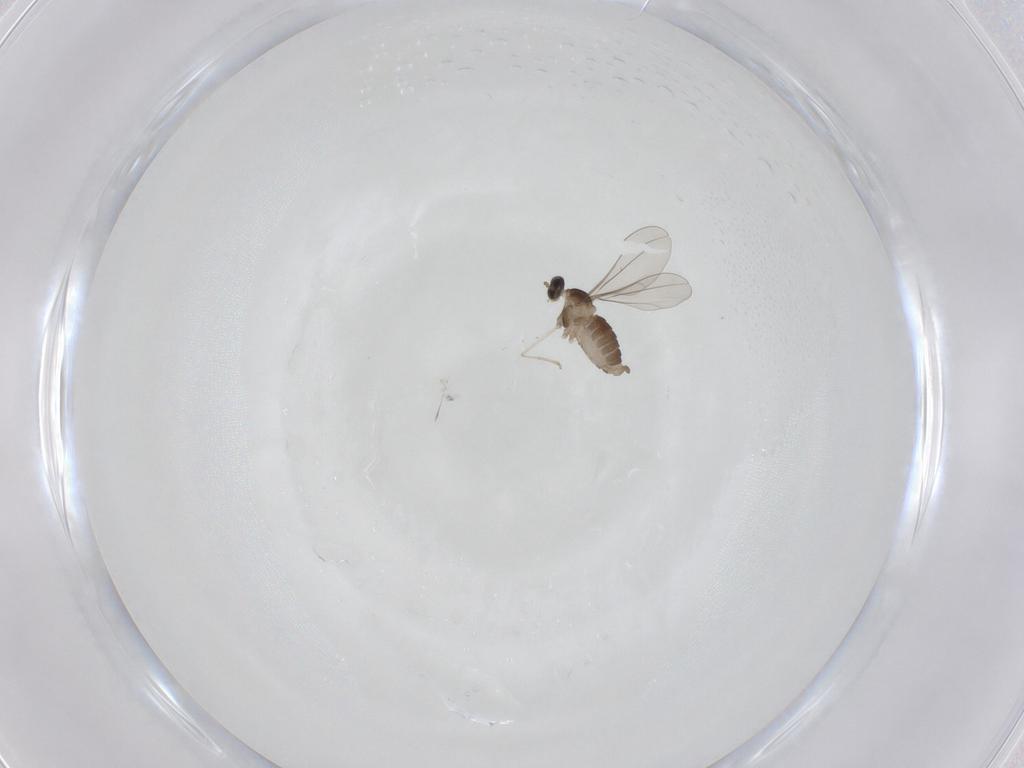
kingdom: Animalia
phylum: Arthropoda
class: Insecta
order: Diptera
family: Cecidomyiidae
